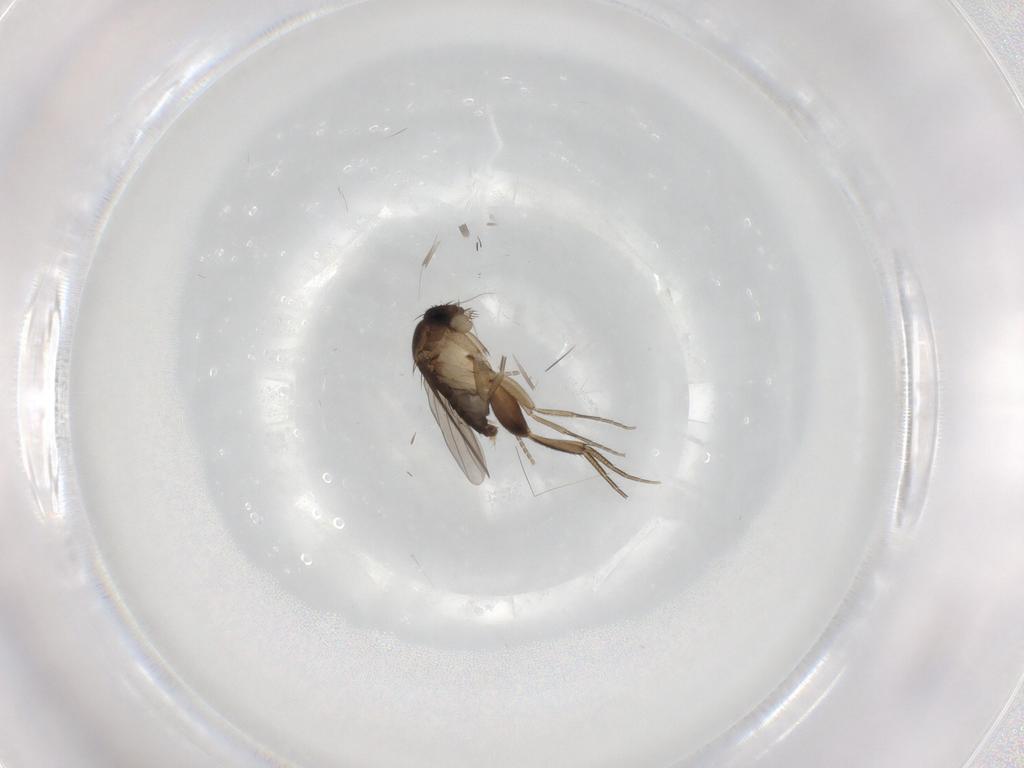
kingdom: Animalia
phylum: Arthropoda
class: Insecta
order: Diptera
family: Phoridae
